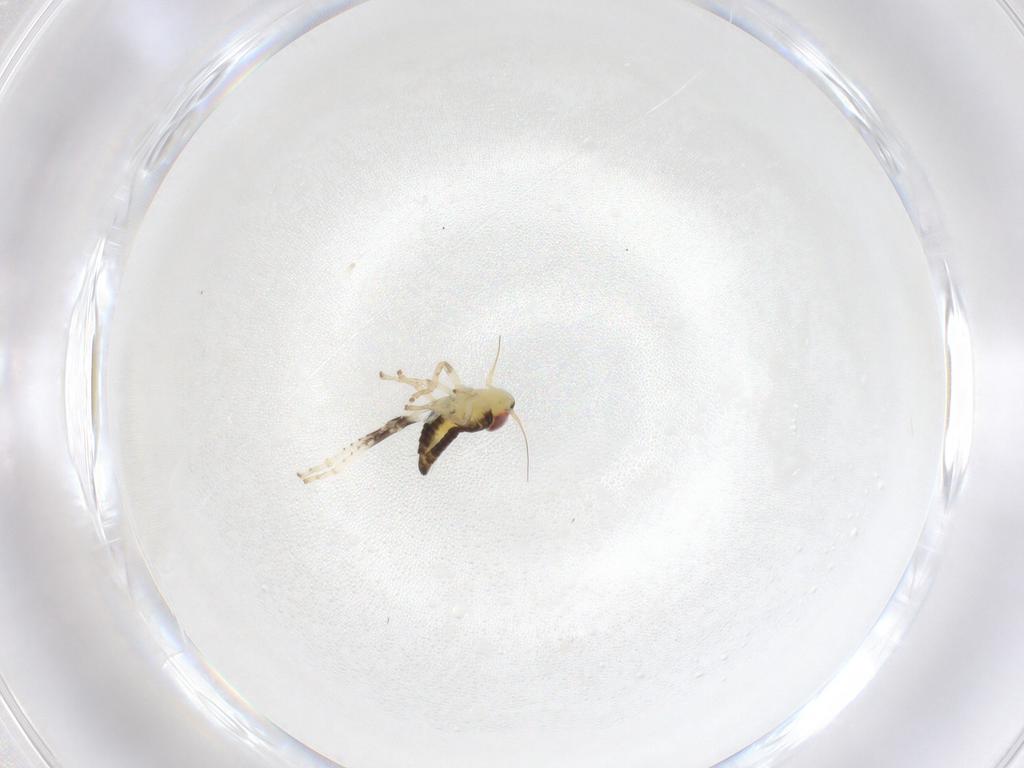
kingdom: Animalia
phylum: Arthropoda
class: Insecta
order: Hemiptera
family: Cicadellidae
